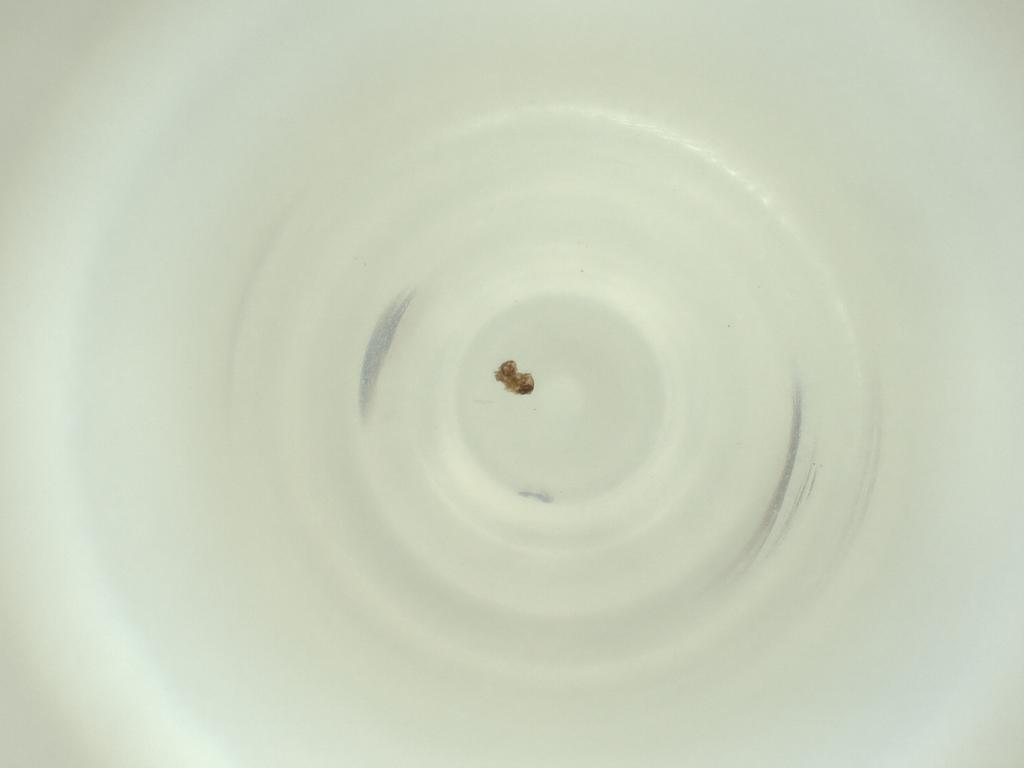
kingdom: Animalia
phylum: Arthropoda
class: Insecta
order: Diptera
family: Cecidomyiidae
